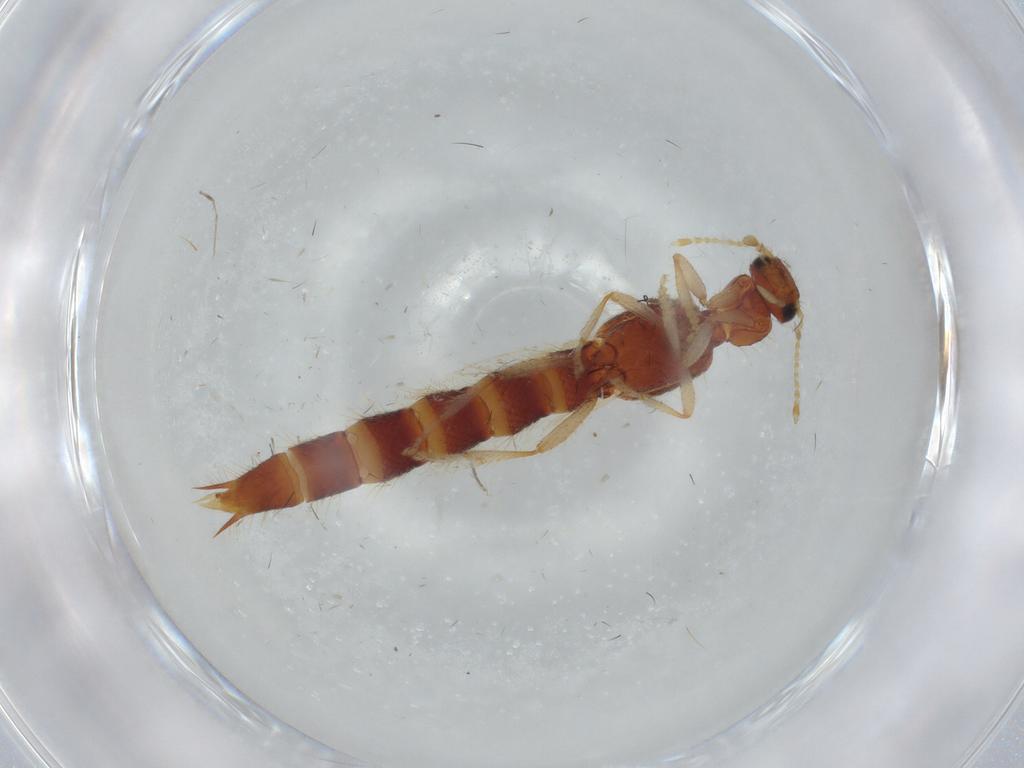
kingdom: Animalia
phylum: Arthropoda
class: Insecta
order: Coleoptera
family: Staphylinidae
